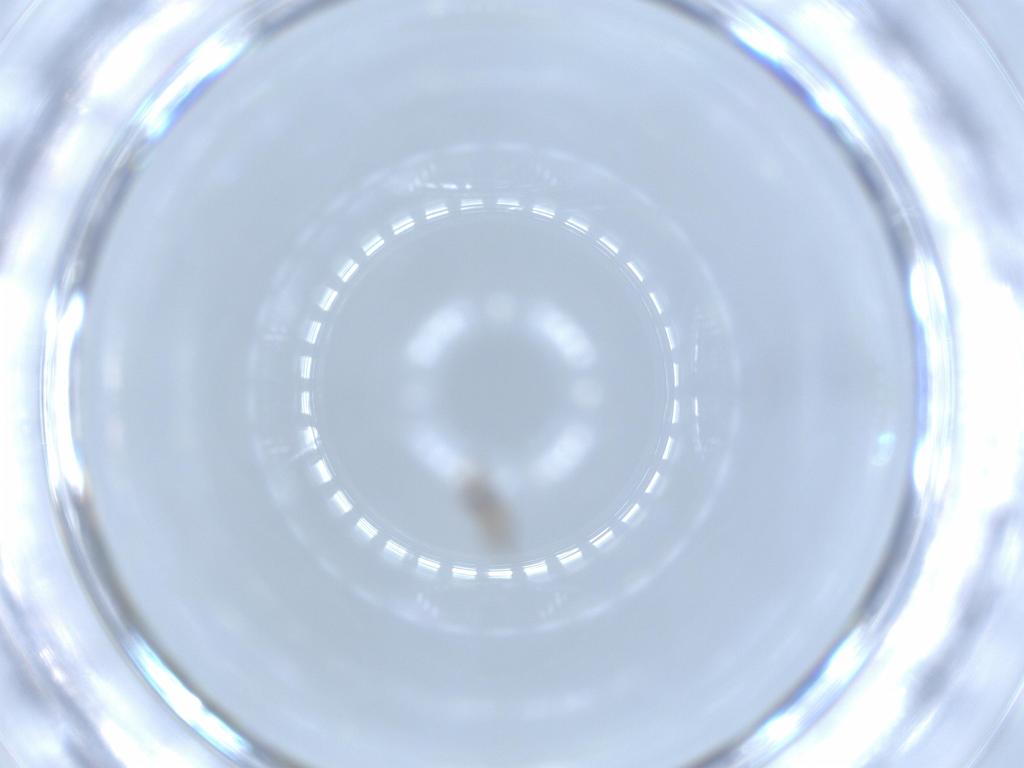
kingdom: Animalia
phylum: Arthropoda
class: Insecta
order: Diptera
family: Cecidomyiidae
